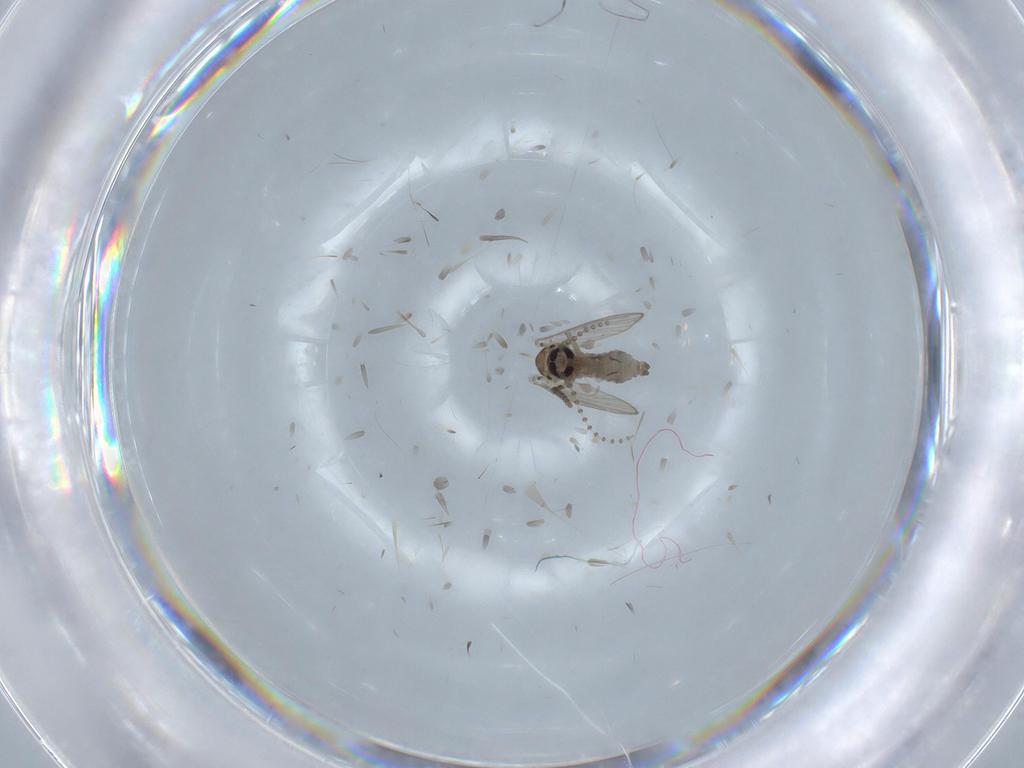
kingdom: Animalia
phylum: Arthropoda
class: Insecta
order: Diptera
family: Psychodidae
